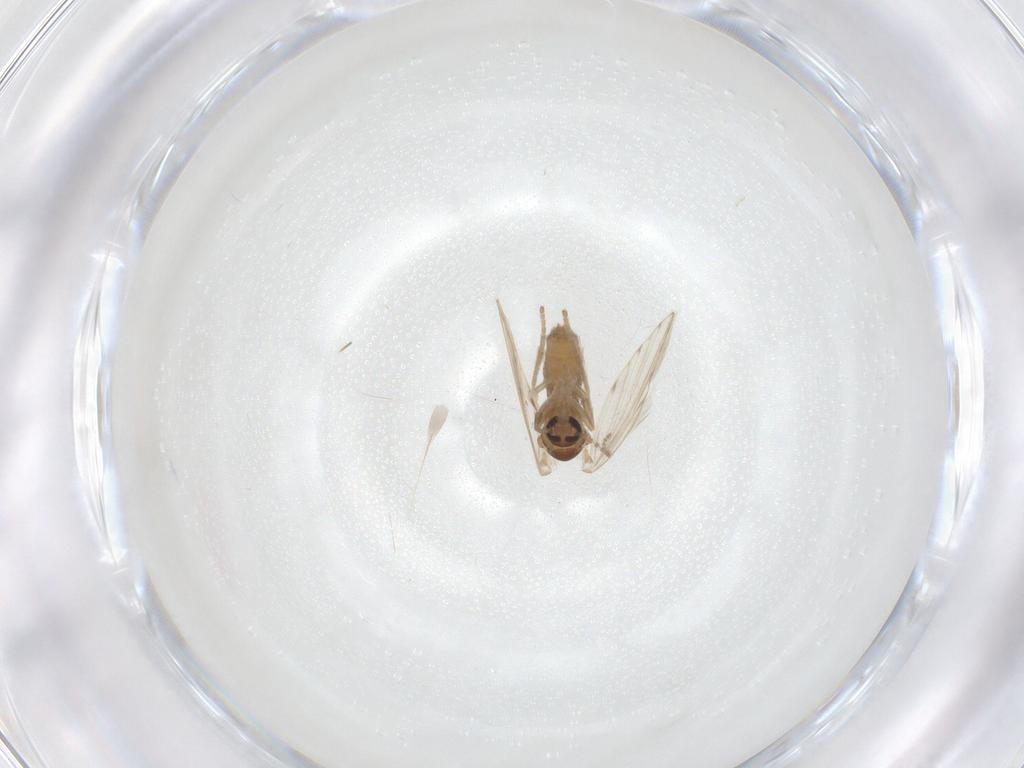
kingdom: Animalia
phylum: Arthropoda
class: Insecta
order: Diptera
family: Psychodidae
